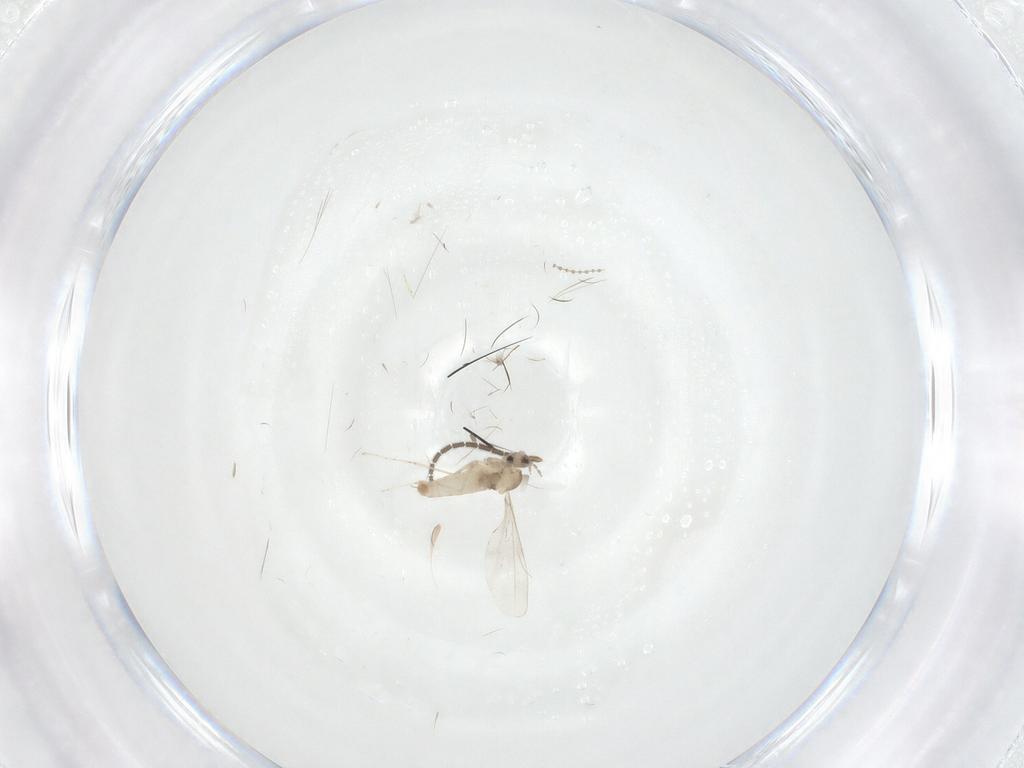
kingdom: Animalia
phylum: Arthropoda
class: Insecta
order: Diptera
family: Sciaridae
